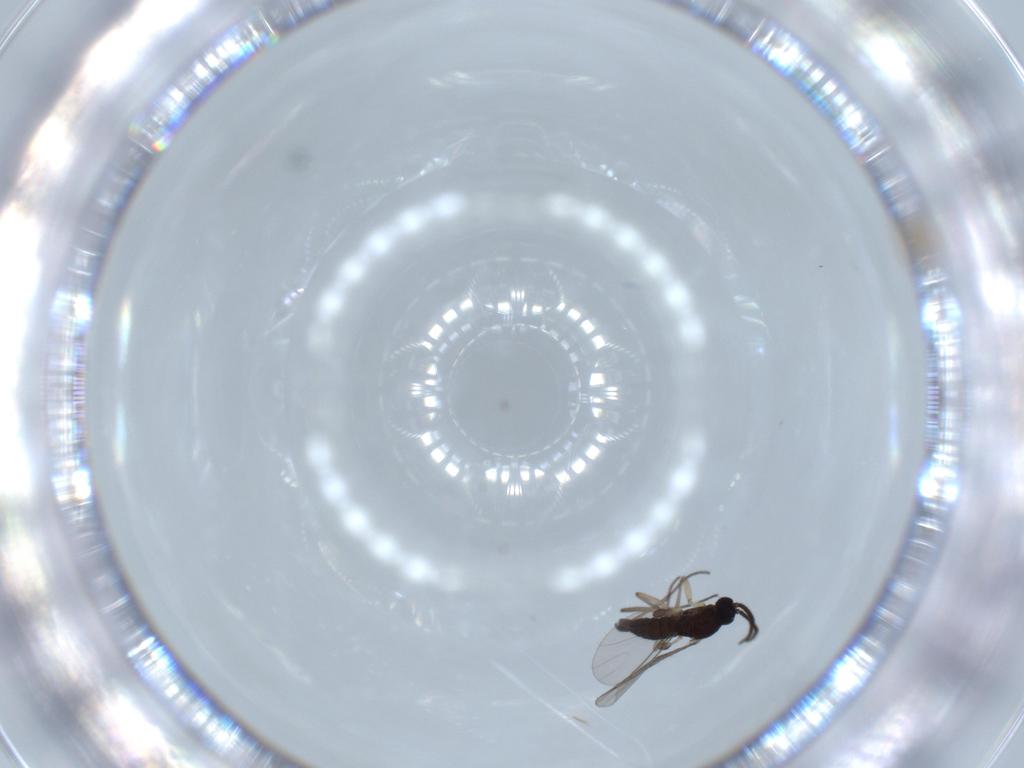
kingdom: Animalia
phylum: Arthropoda
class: Insecta
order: Diptera
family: Sciaridae
